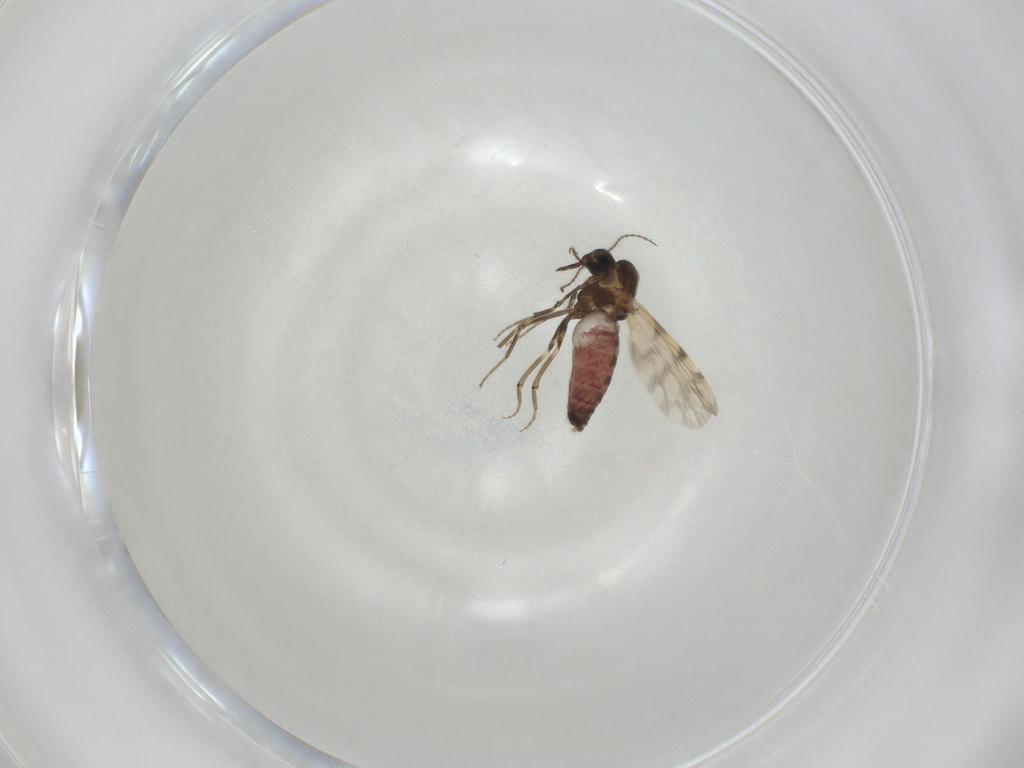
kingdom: Animalia
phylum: Arthropoda
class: Insecta
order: Diptera
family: Ceratopogonidae
